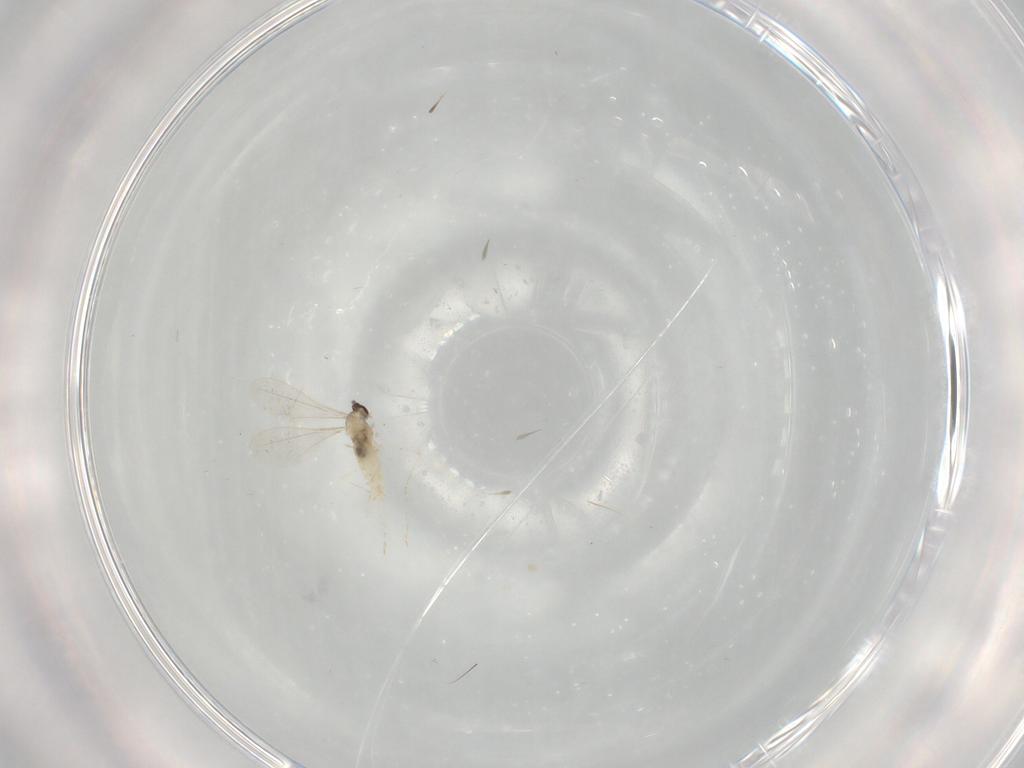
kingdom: Animalia
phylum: Arthropoda
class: Insecta
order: Diptera
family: Cecidomyiidae
